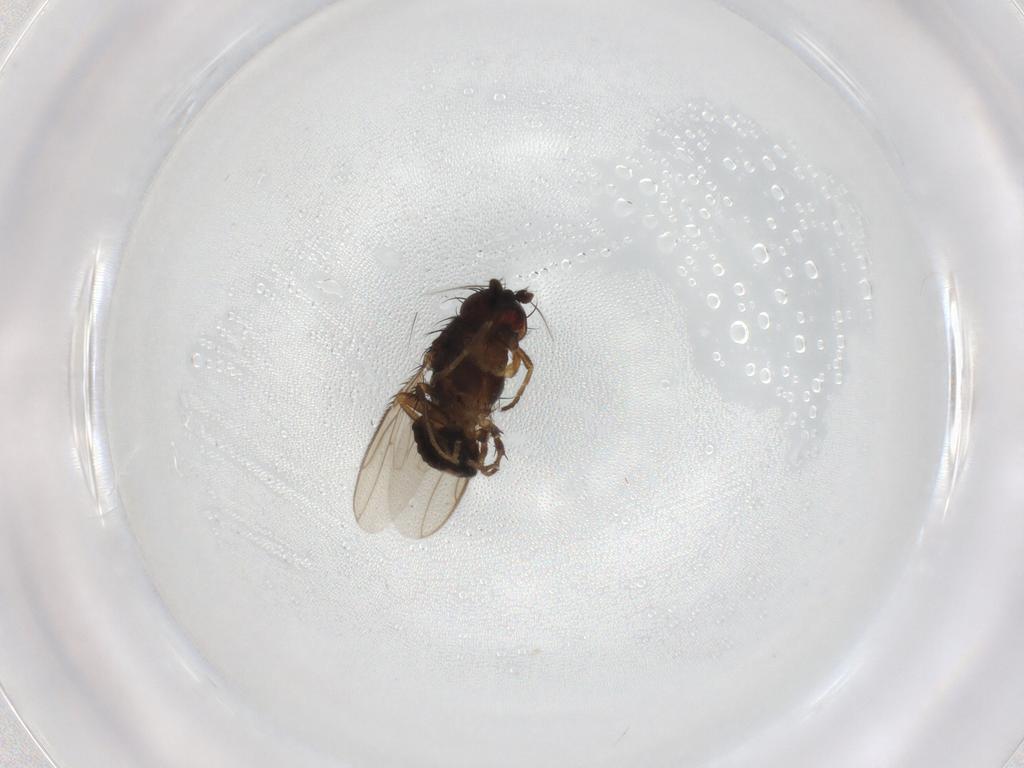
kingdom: Animalia
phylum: Arthropoda
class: Insecta
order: Diptera
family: Sphaeroceridae
